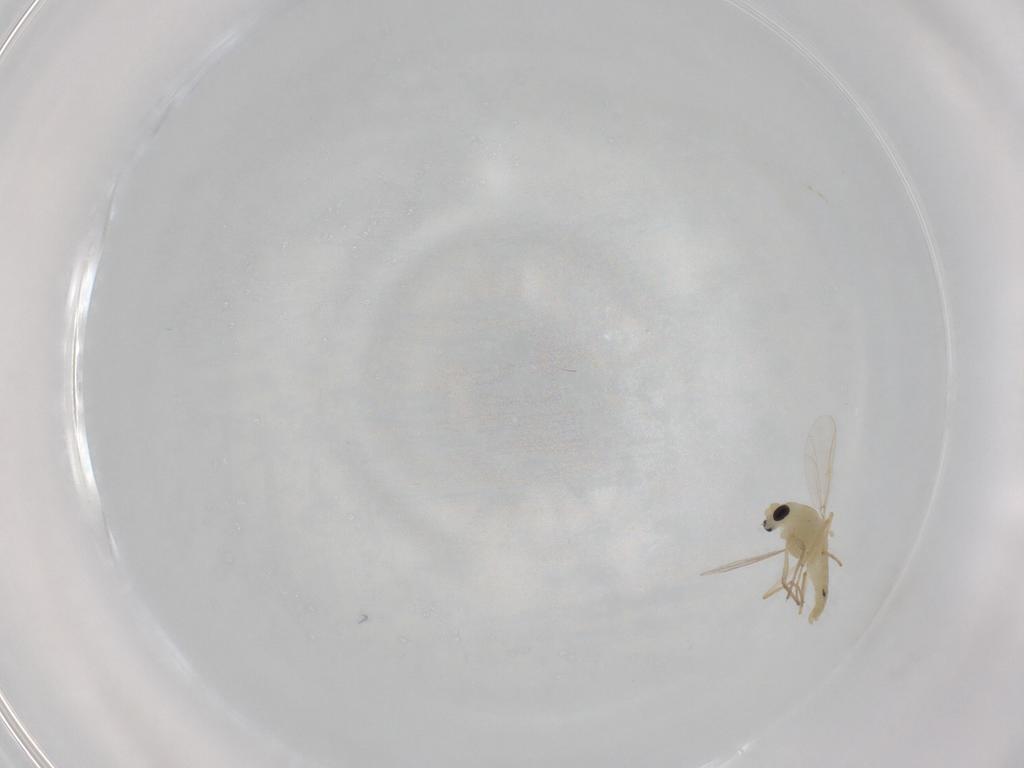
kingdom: Animalia
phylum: Arthropoda
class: Insecta
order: Diptera
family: Chironomidae
